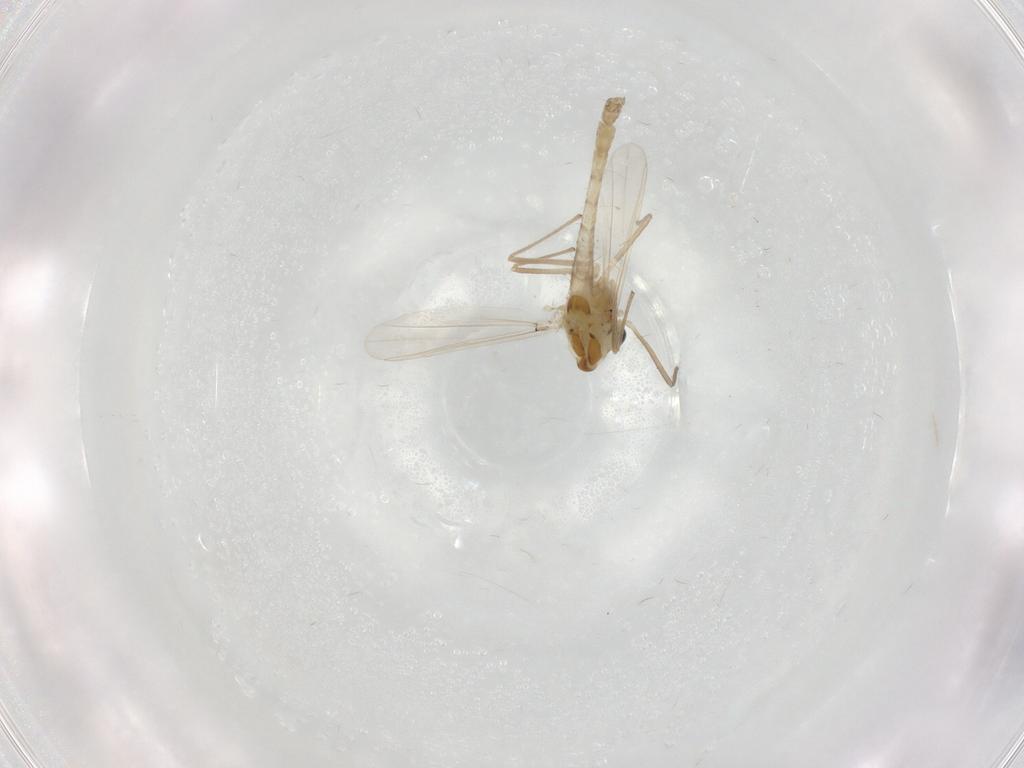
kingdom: Animalia
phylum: Arthropoda
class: Insecta
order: Diptera
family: Chironomidae
